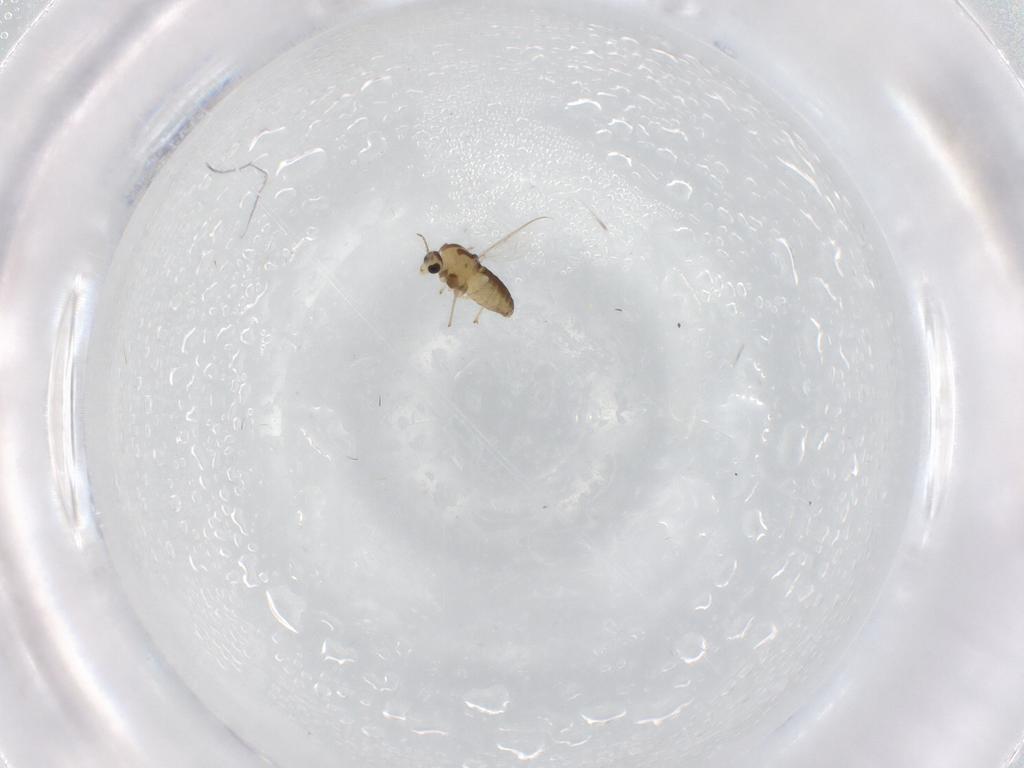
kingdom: Animalia
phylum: Arthropoda
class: Insecta
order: Diptera
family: Chironomidae
